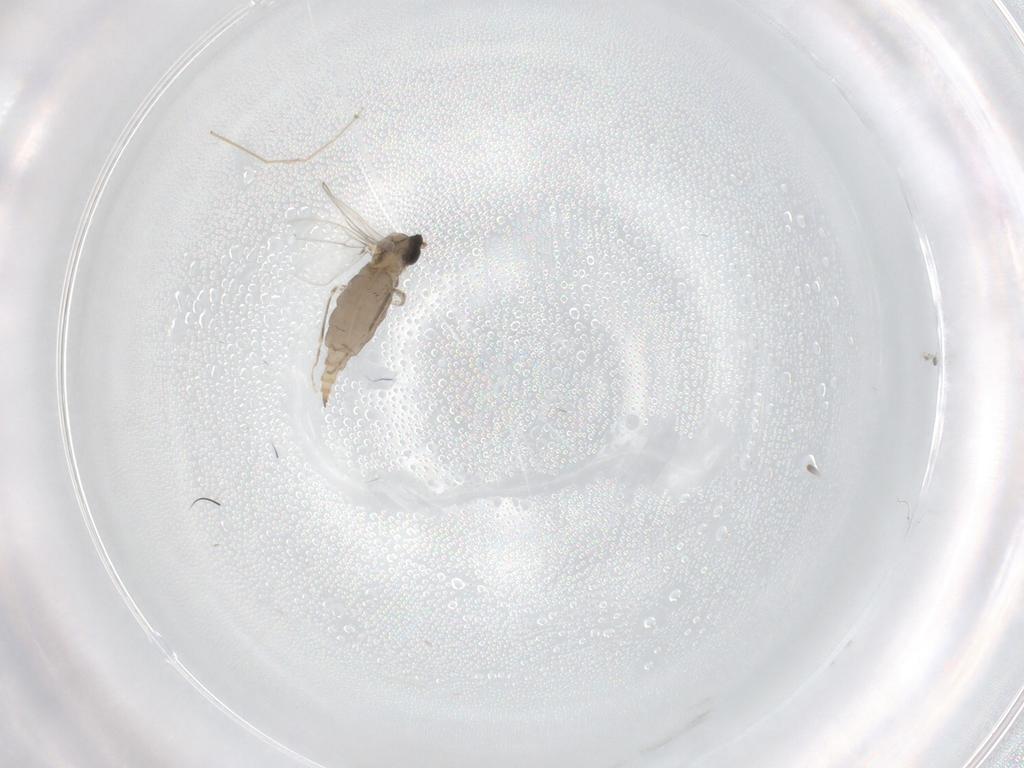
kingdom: Animalia
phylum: Arthropoda
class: Insecta
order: Diptera
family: Cecidomyiidae
